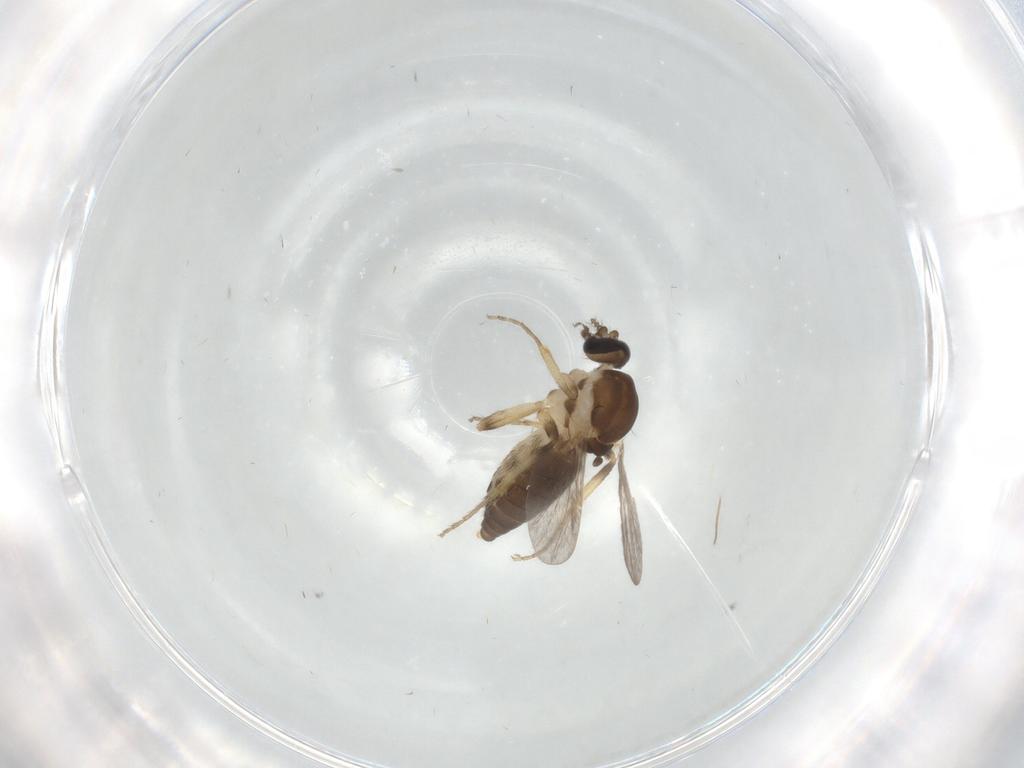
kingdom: Animalia
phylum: Arthropoda
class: Insecta
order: Diptera
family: Ceratopogonidae
